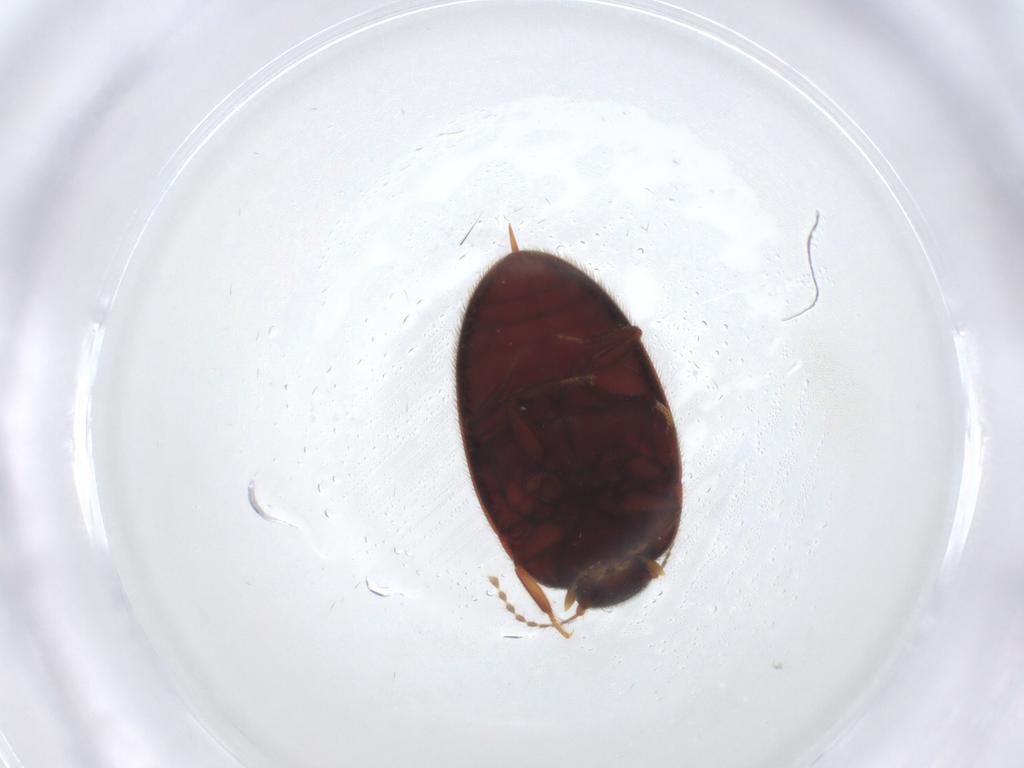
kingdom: Animalia
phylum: Arthropoda
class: Insecta
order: Coleoptera
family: Limnichidae
